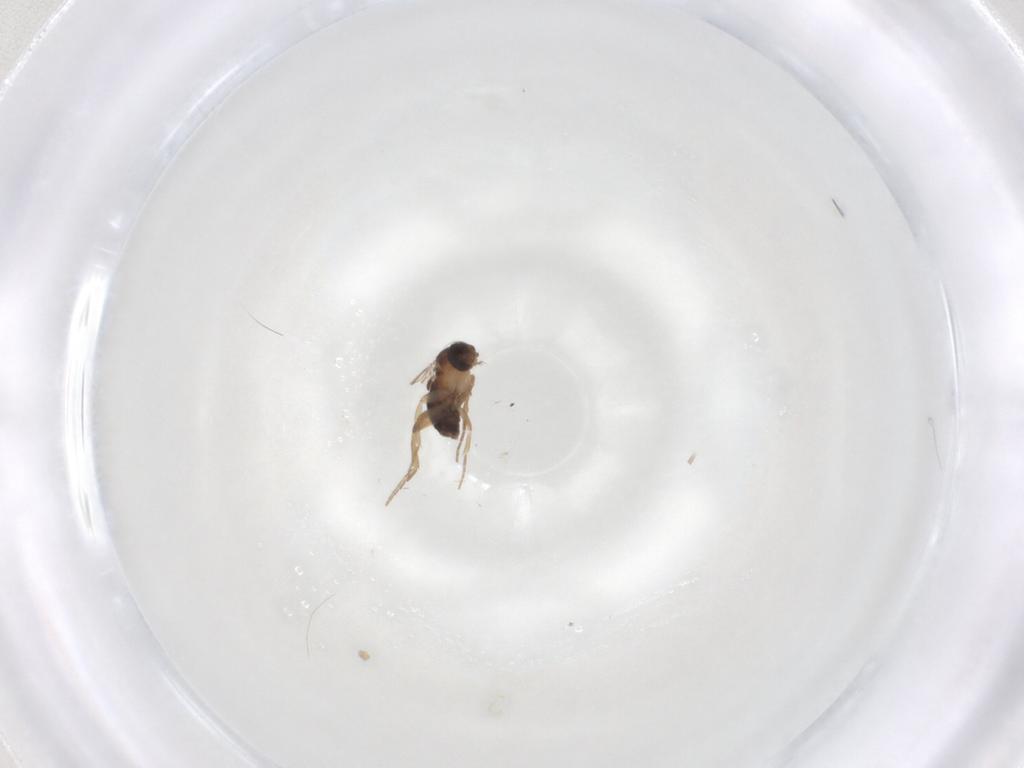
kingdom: Animalia
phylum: Arthropoda
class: Insecta
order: Diptera
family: Phoridae
